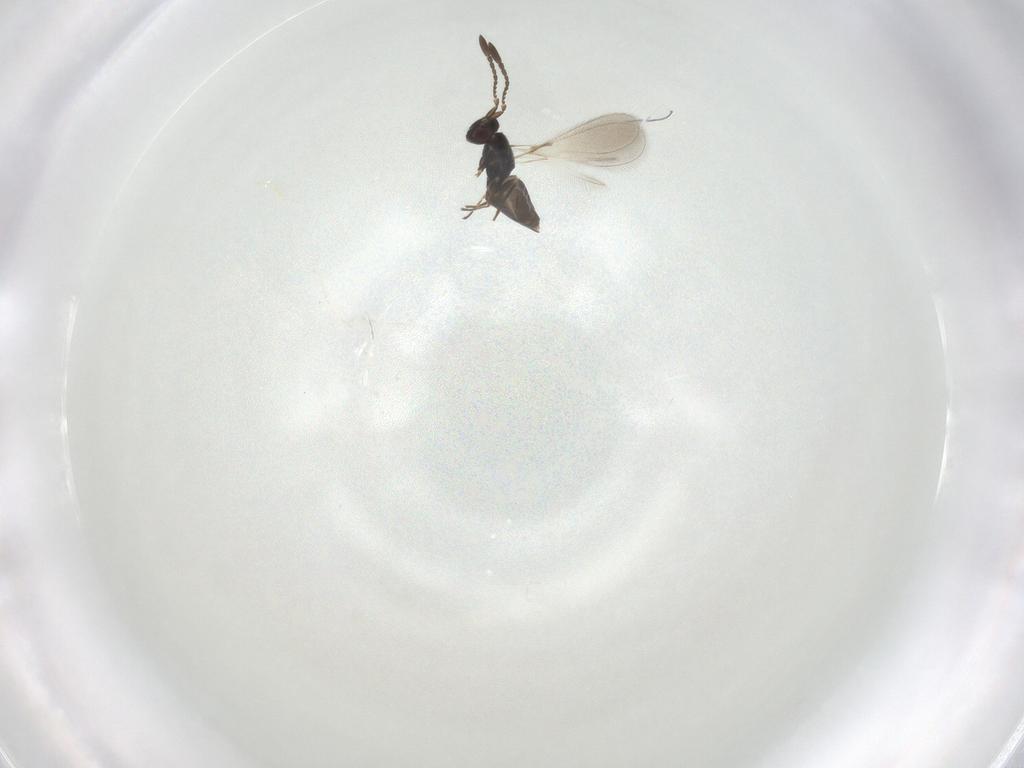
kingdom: Animalia
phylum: Arthropoda
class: Insecta
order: Hymenoptera
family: Mymaridae
